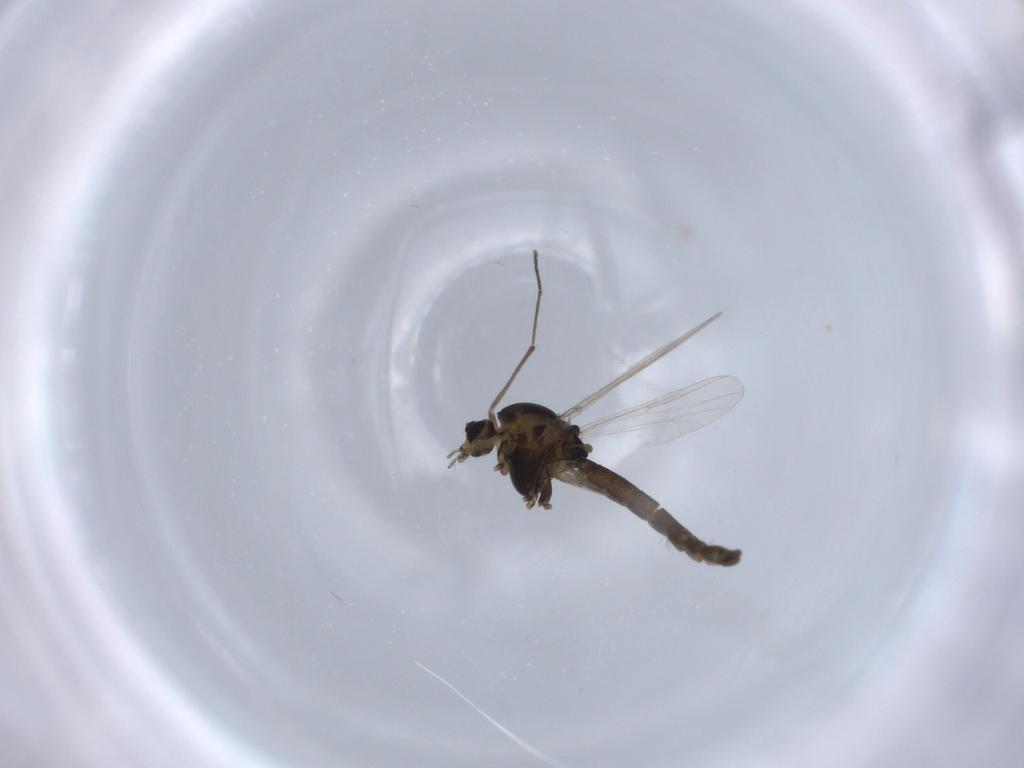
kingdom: Animalia
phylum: Arthropoda
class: Insecta
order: Diptera
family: Chironomidae
